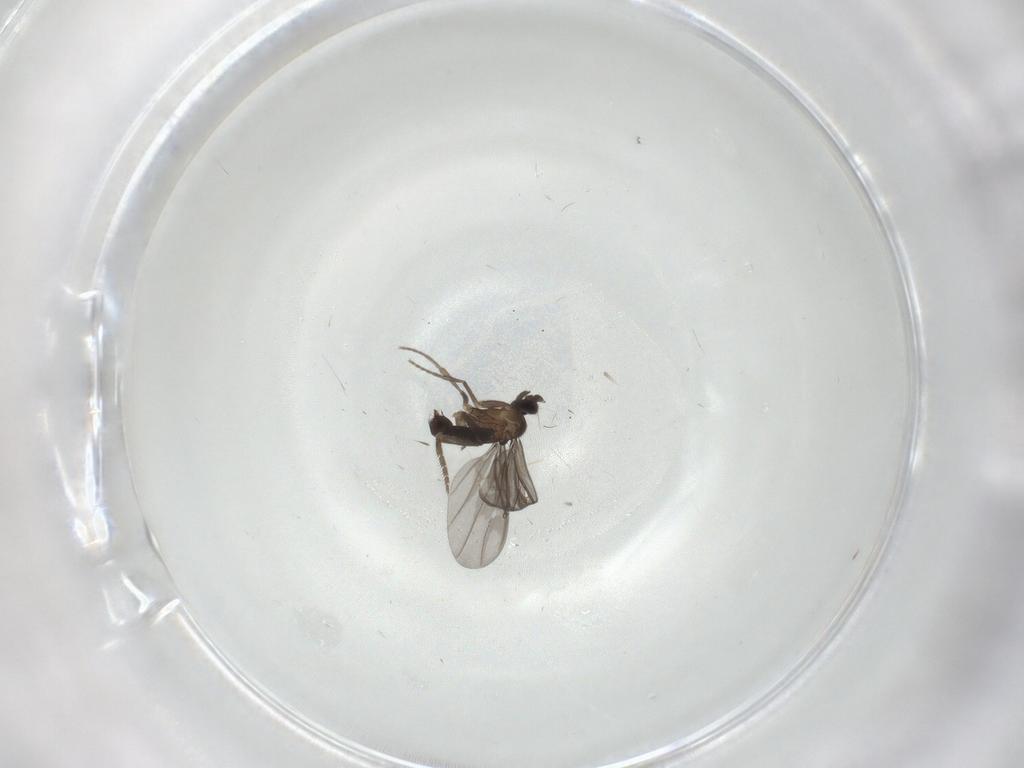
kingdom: Animalia
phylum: Arthropoda
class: Insecta
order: Diptera
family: Phoridae
